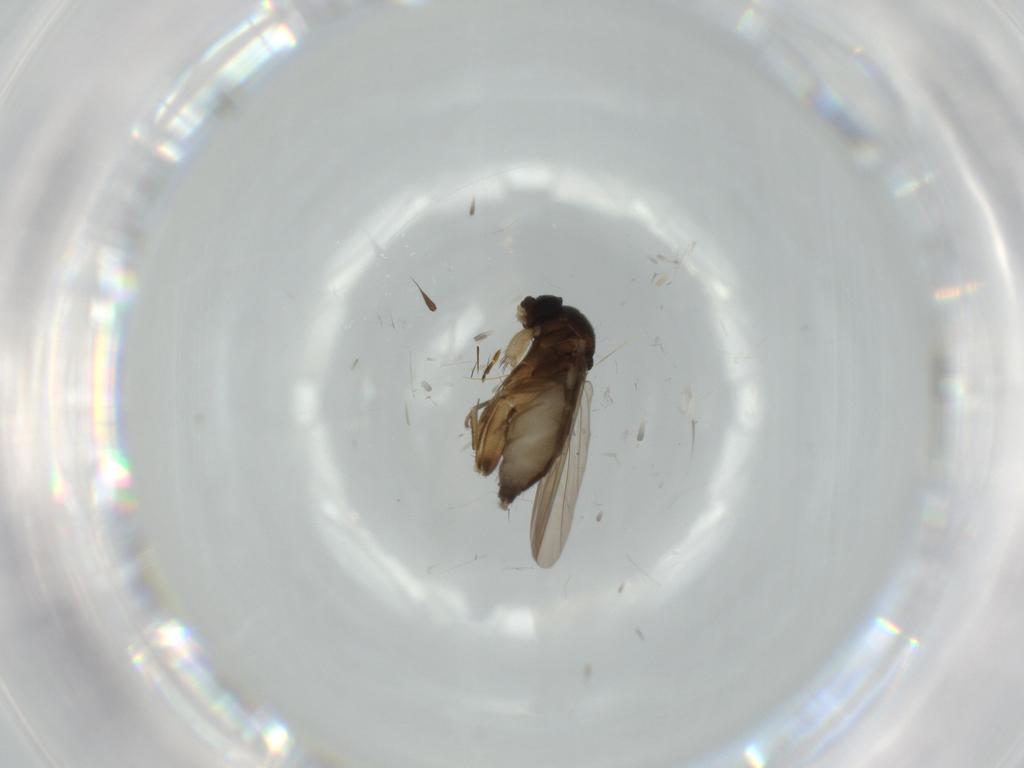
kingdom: Animalia
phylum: Arthropoda
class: Insecta
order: Diptera
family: Phoridae
